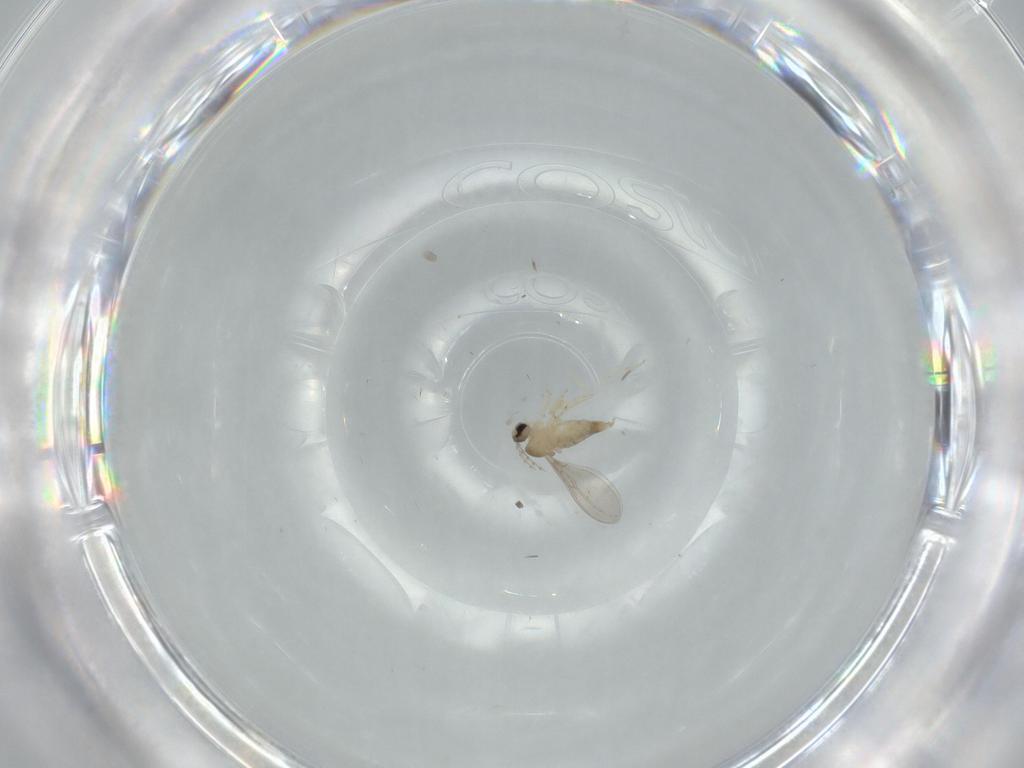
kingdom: Animalia
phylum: Arthropoda
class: Insecta
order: Diptera
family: Cecidomyiidae
